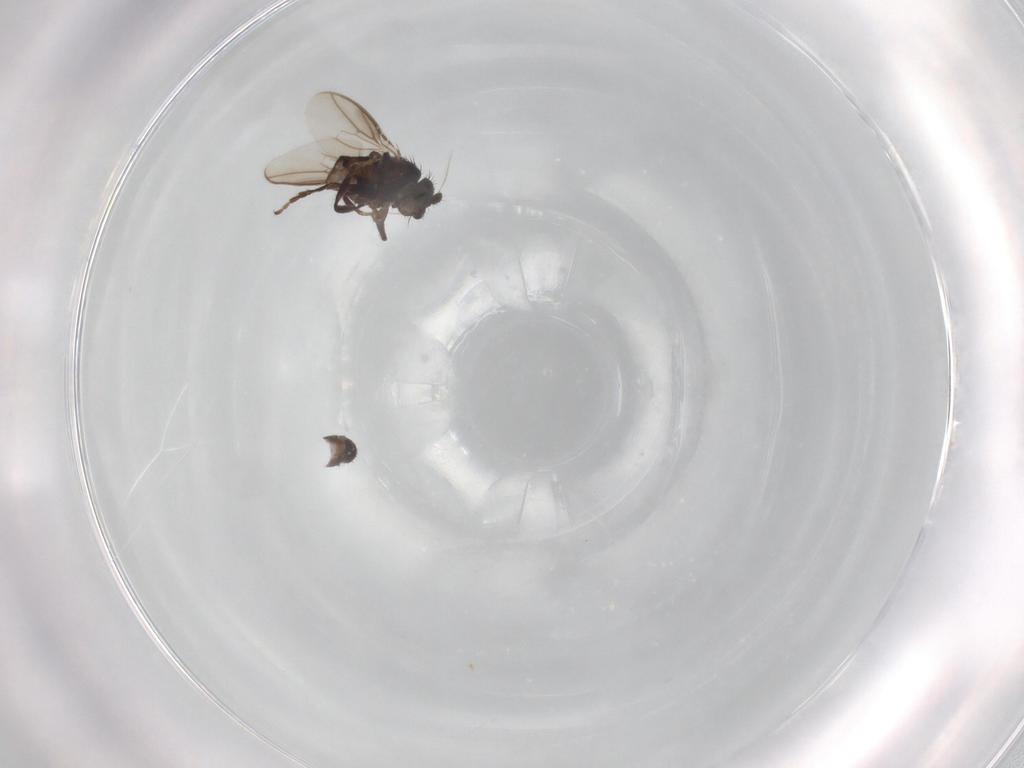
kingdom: Animalia
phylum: Arthropoda
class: Insecta
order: Diptera
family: Sphaeroceridae
